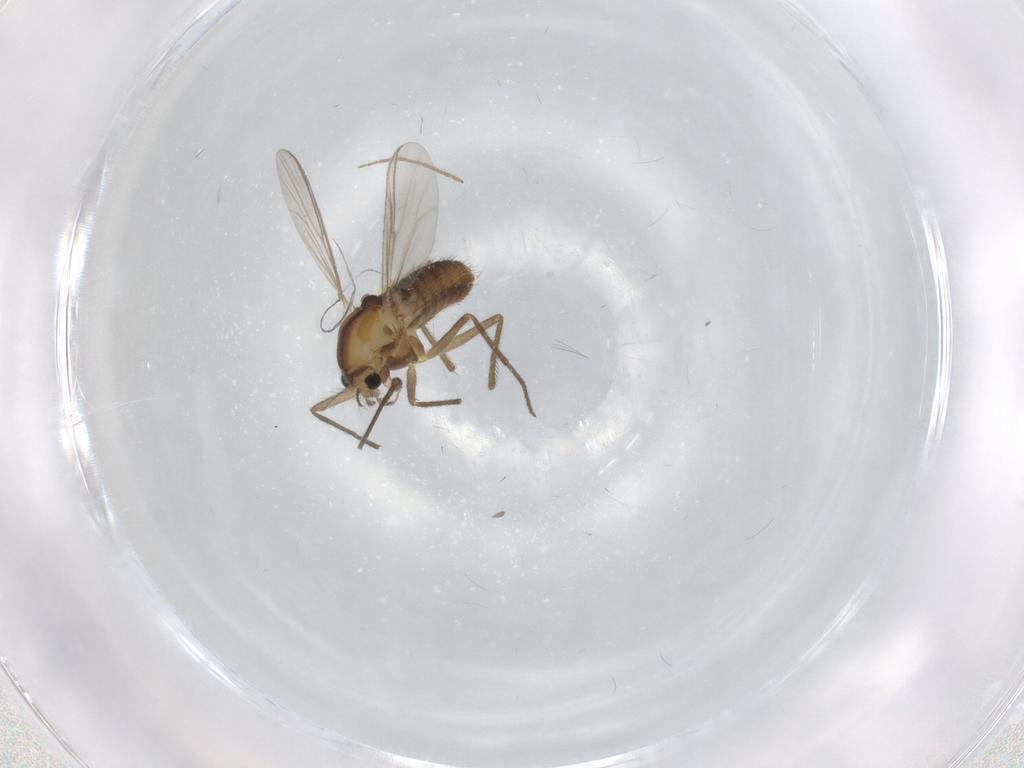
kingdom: Animalia
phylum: Arthropoda
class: Insecta
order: Diptera
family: Chironomidae
